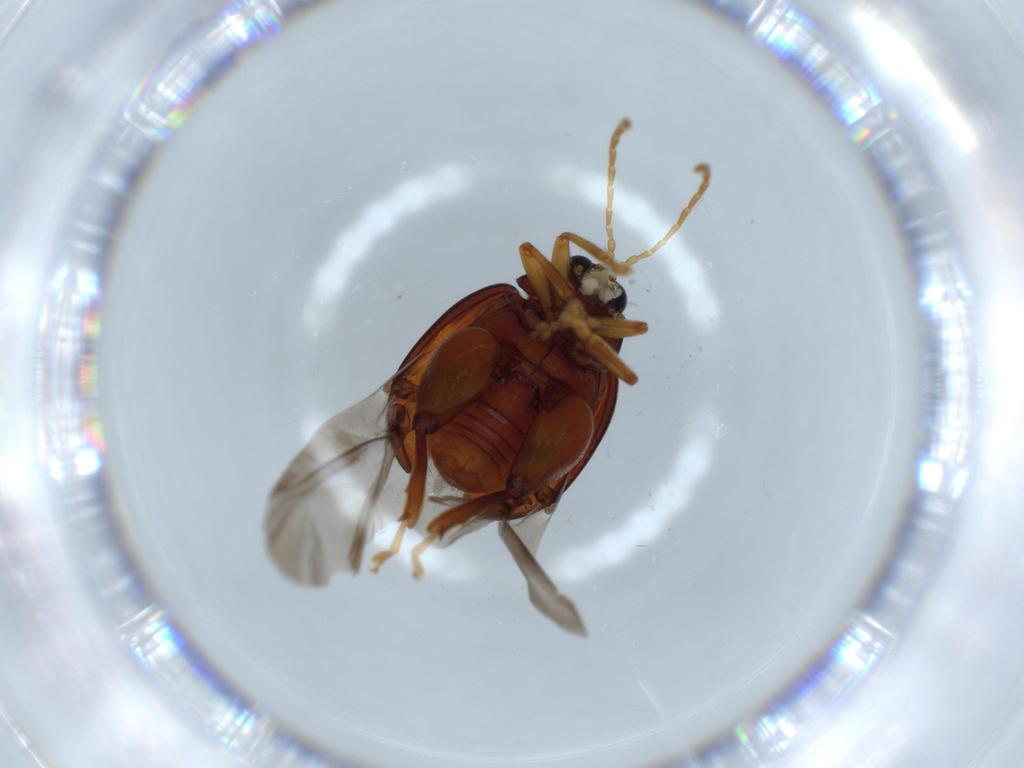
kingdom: Animalia
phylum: Arthropoda
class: Insecta
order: Coleoptera
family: Chrysomelidae
